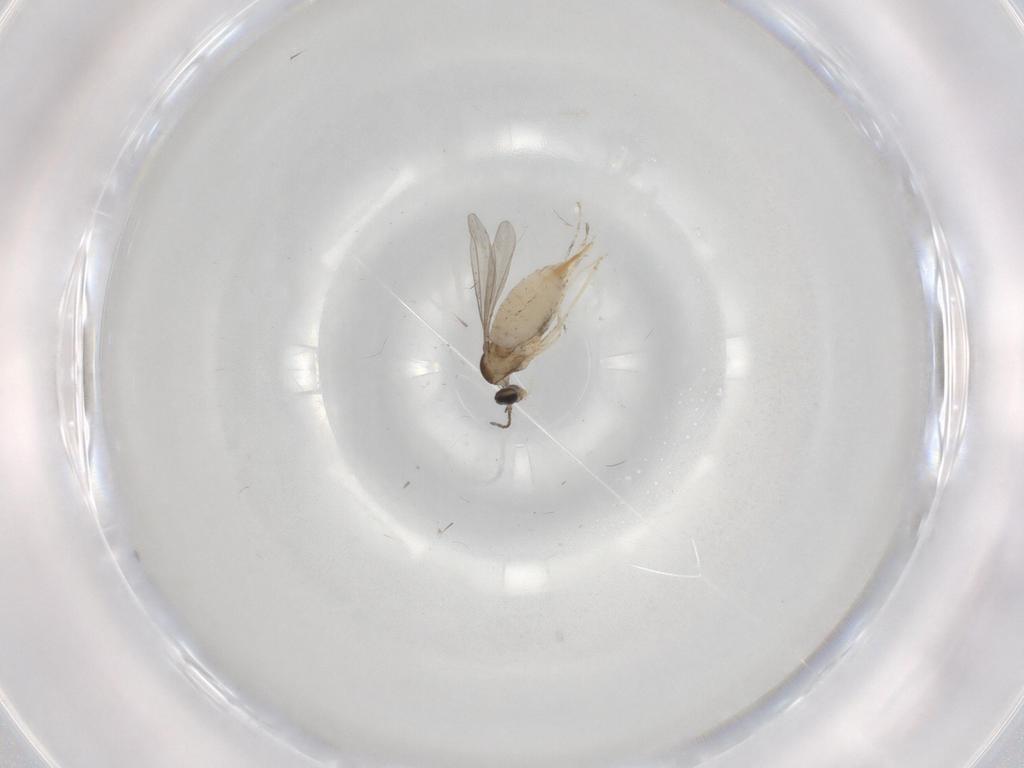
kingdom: Animalia
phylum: Arthropoda
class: Insecta
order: Diptera
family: Cecidomyiidae
